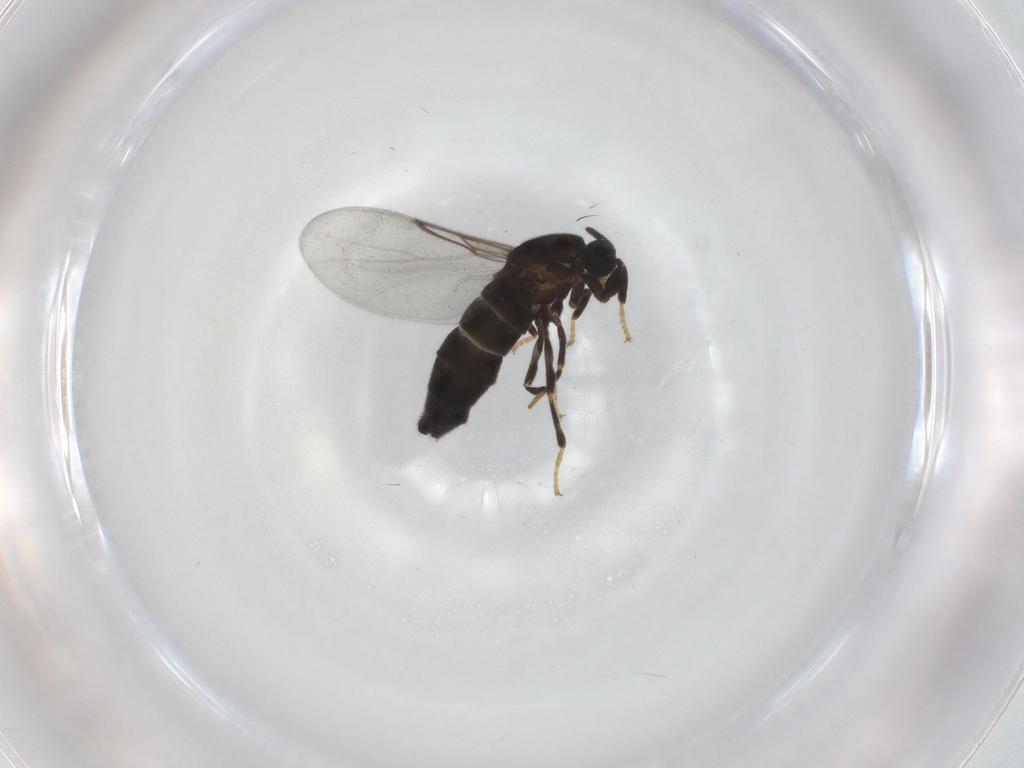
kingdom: Animalia
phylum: Arthropoda
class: Insecta
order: Diptera
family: Scatopsidae
